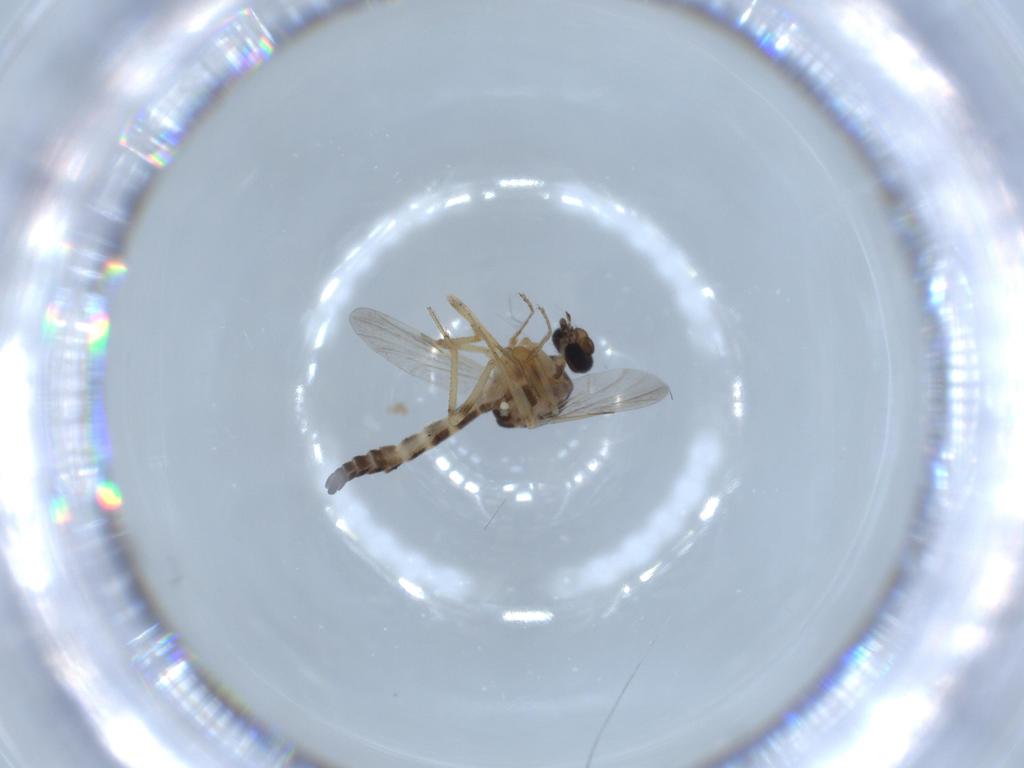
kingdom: Animalia
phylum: Arthropoda
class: Insecta
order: Diptera
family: Ceratopogonidae
